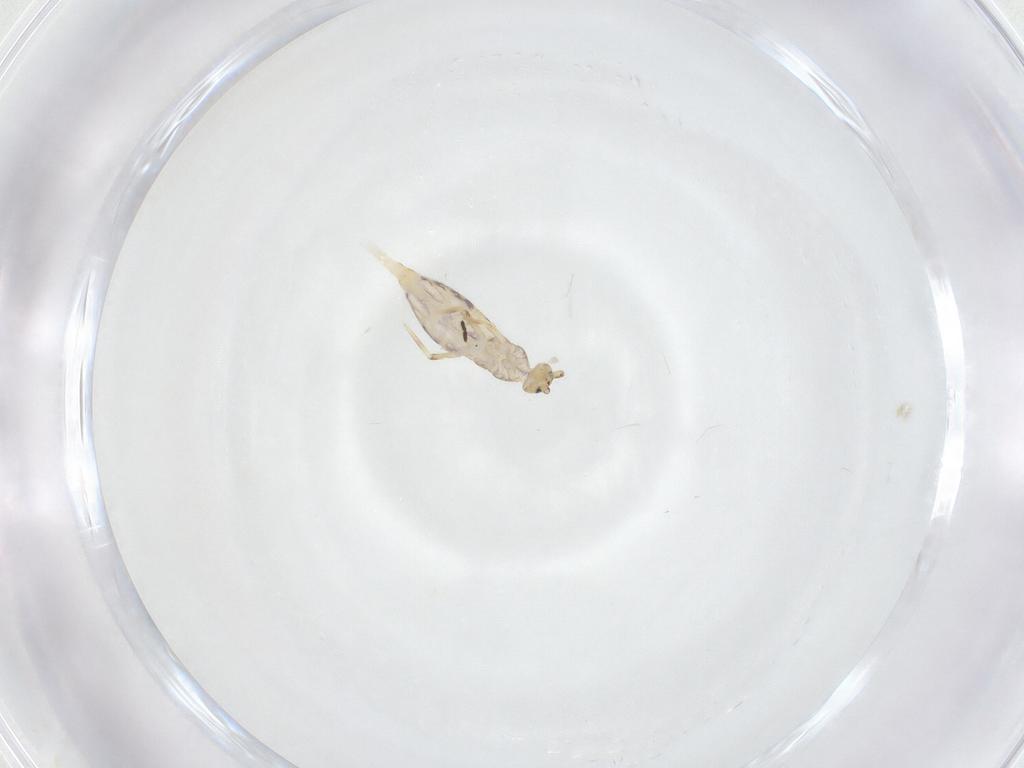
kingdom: Animalia
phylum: Arthropoda
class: Collembola
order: Entomobryomorpha
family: Entomobryidae
